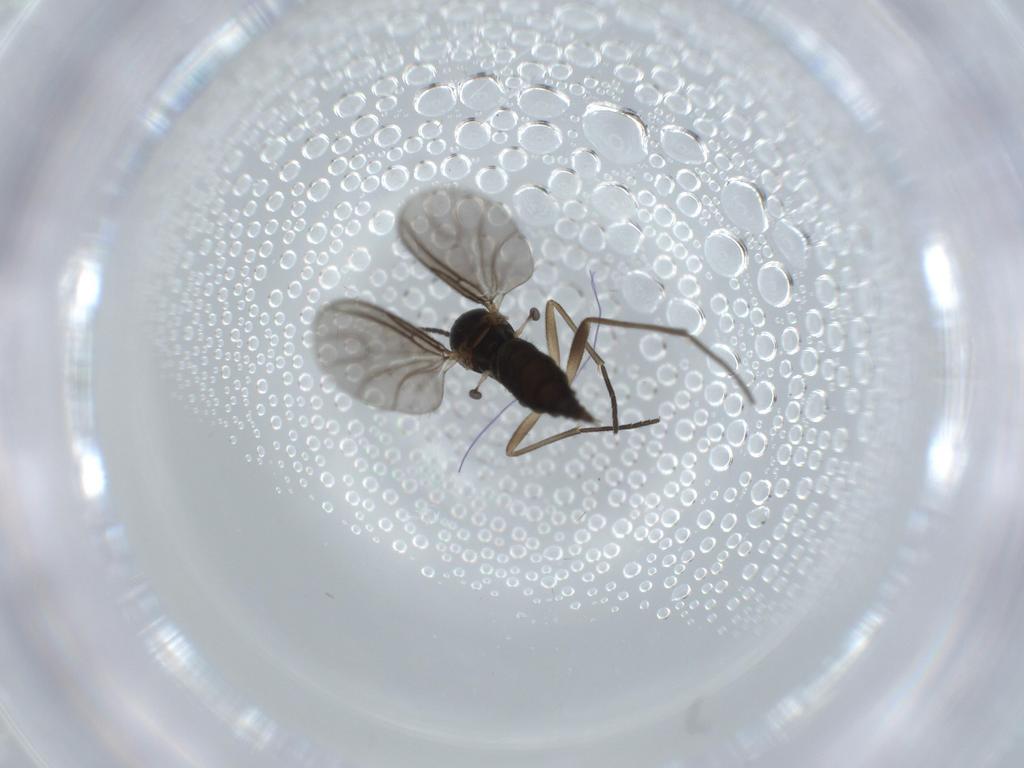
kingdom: Animalia
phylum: Arthropoda
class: Insecta
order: Diptera
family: Sciaridae
